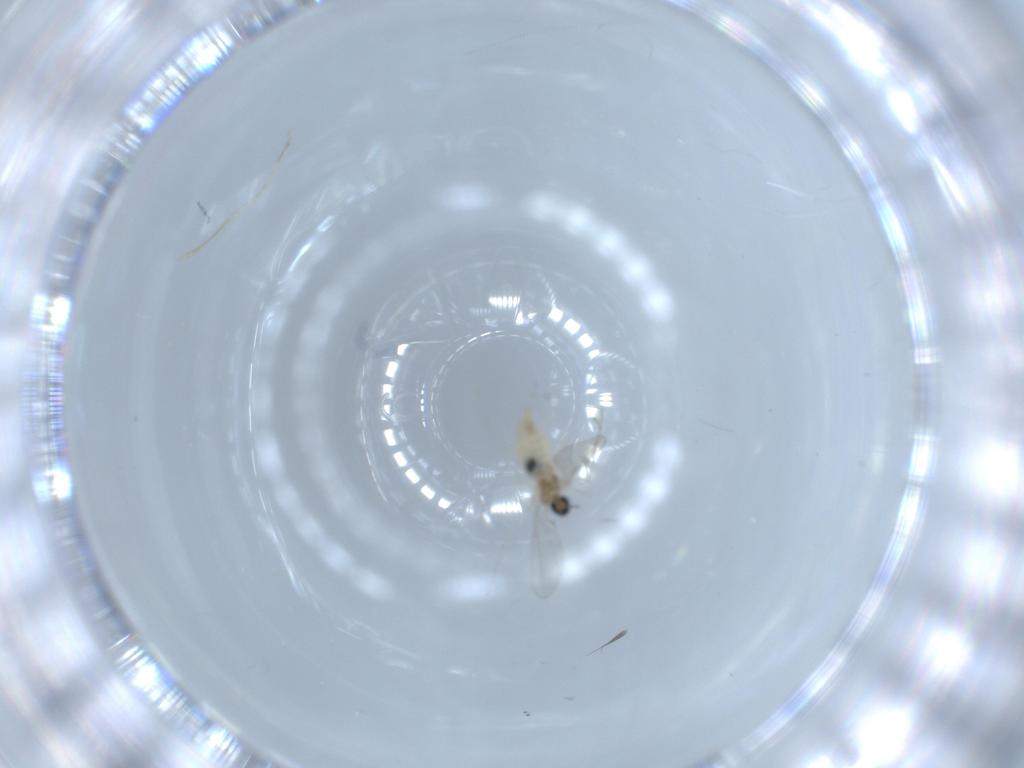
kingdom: Animalia
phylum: Arthropoda
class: Insecta
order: Diptera
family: Cecidomyiidae
